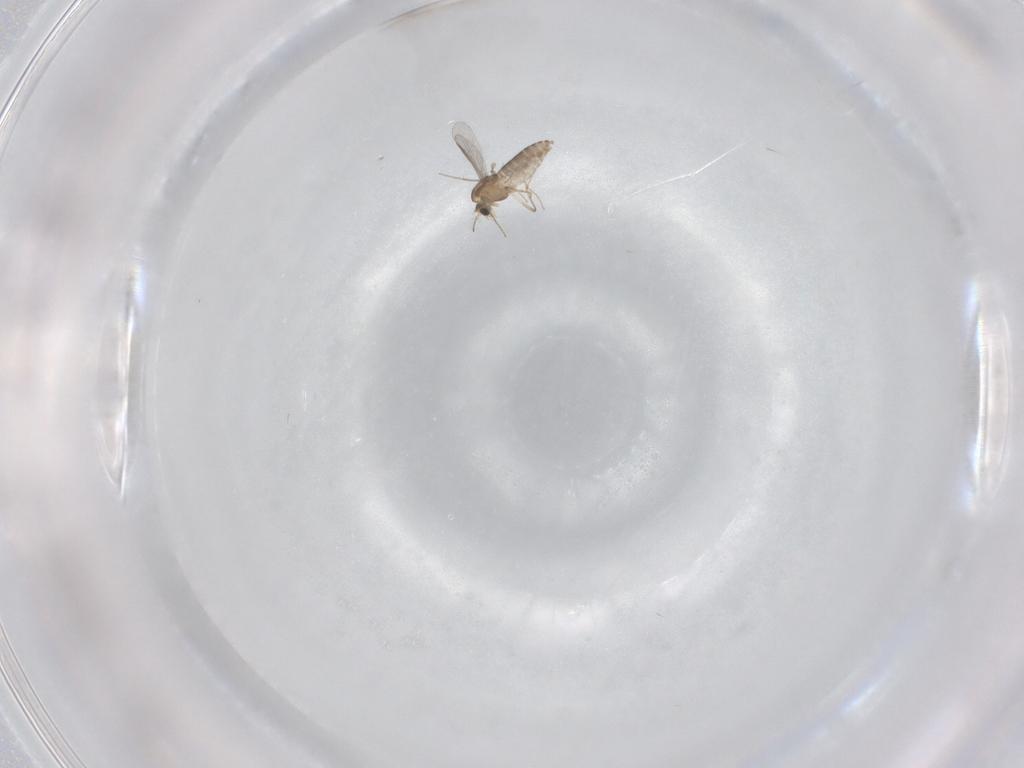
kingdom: Animalia
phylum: Arthropoda
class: Insecta
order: Diptera
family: Chironomidae
